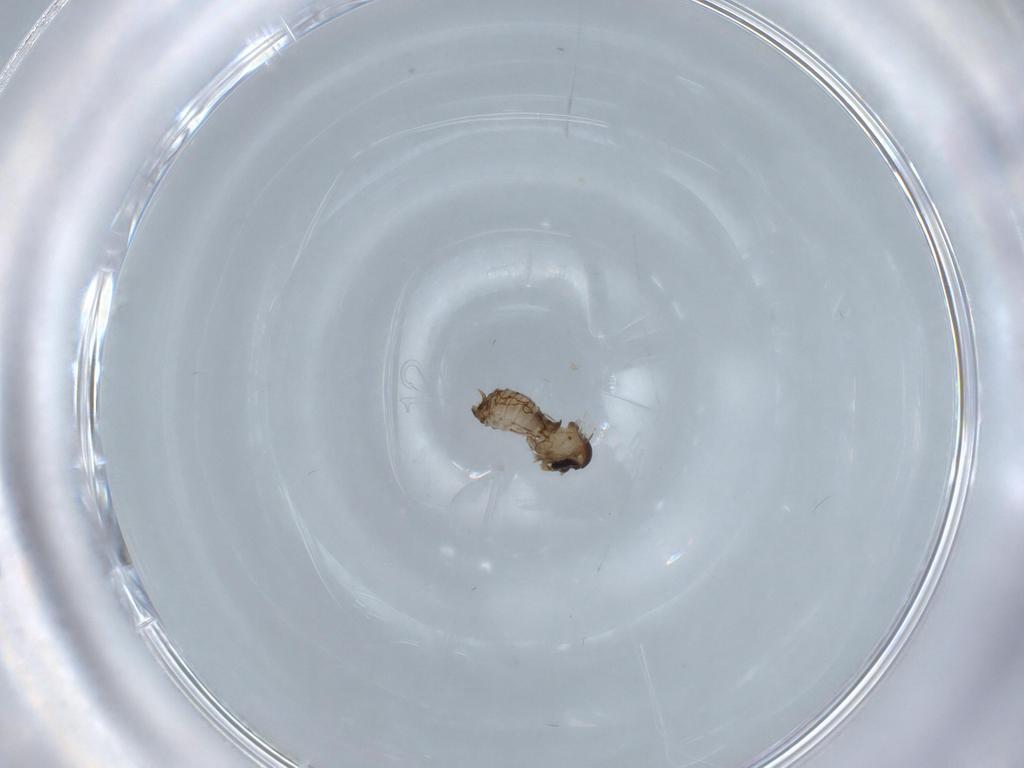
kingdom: Animalia
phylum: Arthropoda
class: Insecta
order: Diptera
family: Psychodidae
